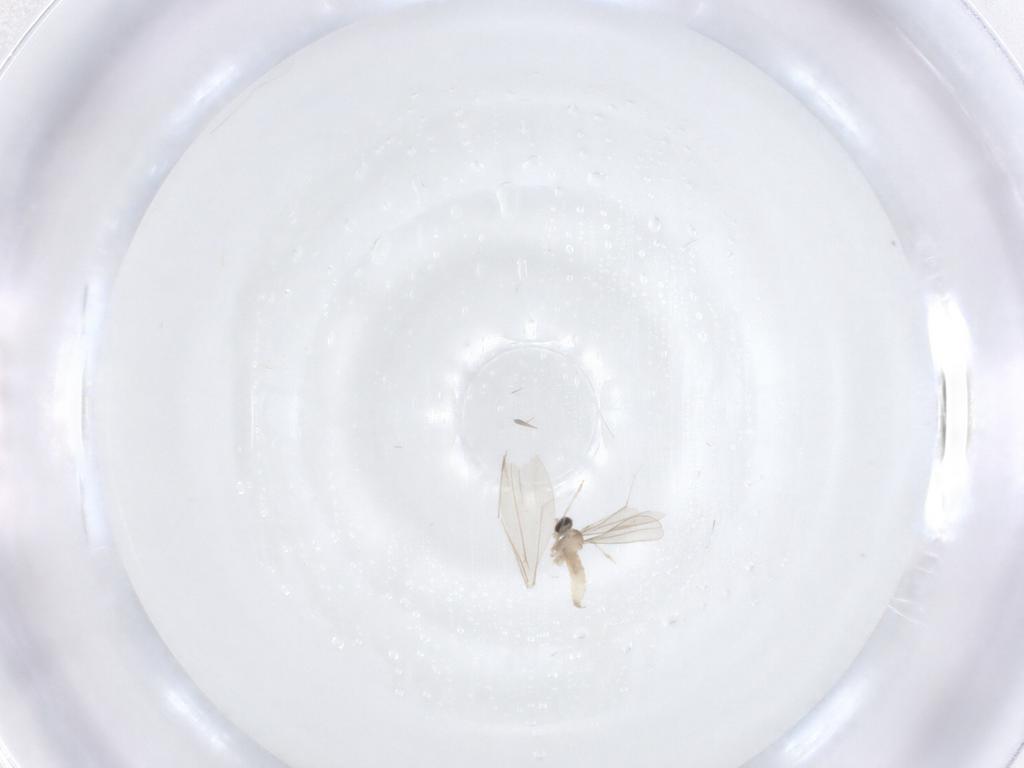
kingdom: Animalia
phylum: Arthropoda
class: Insecta
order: Diptera
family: Cecidomyiidae
